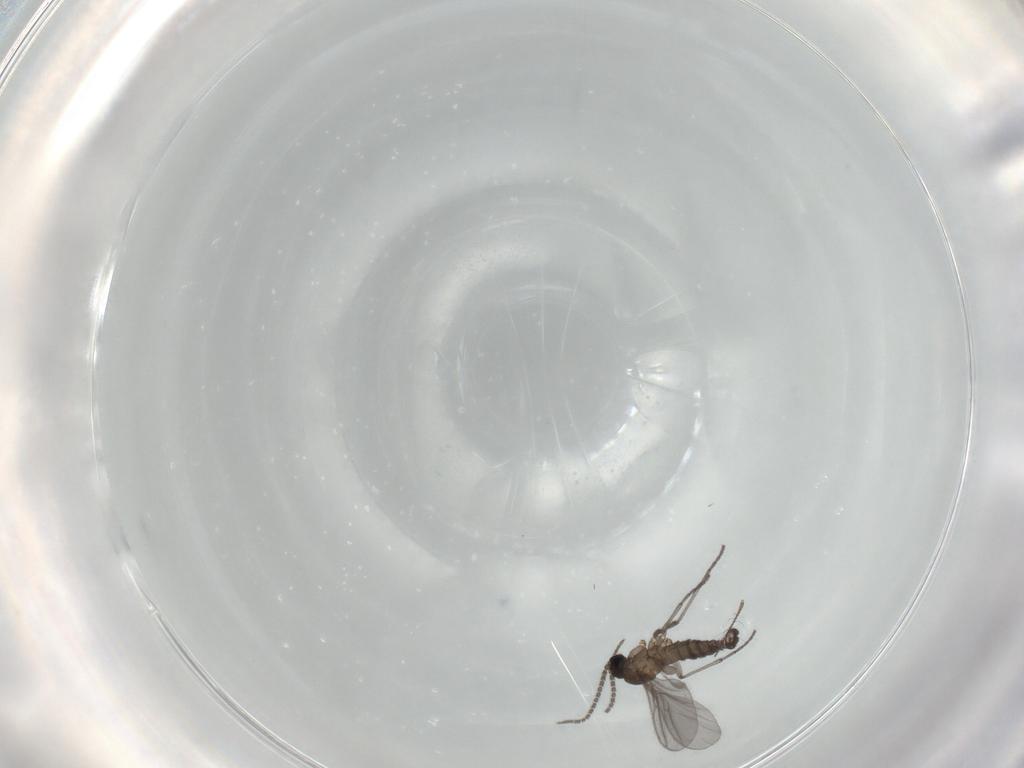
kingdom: Animalia
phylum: Arthropoda
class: Insecta
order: Diptera
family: Sciaridae
